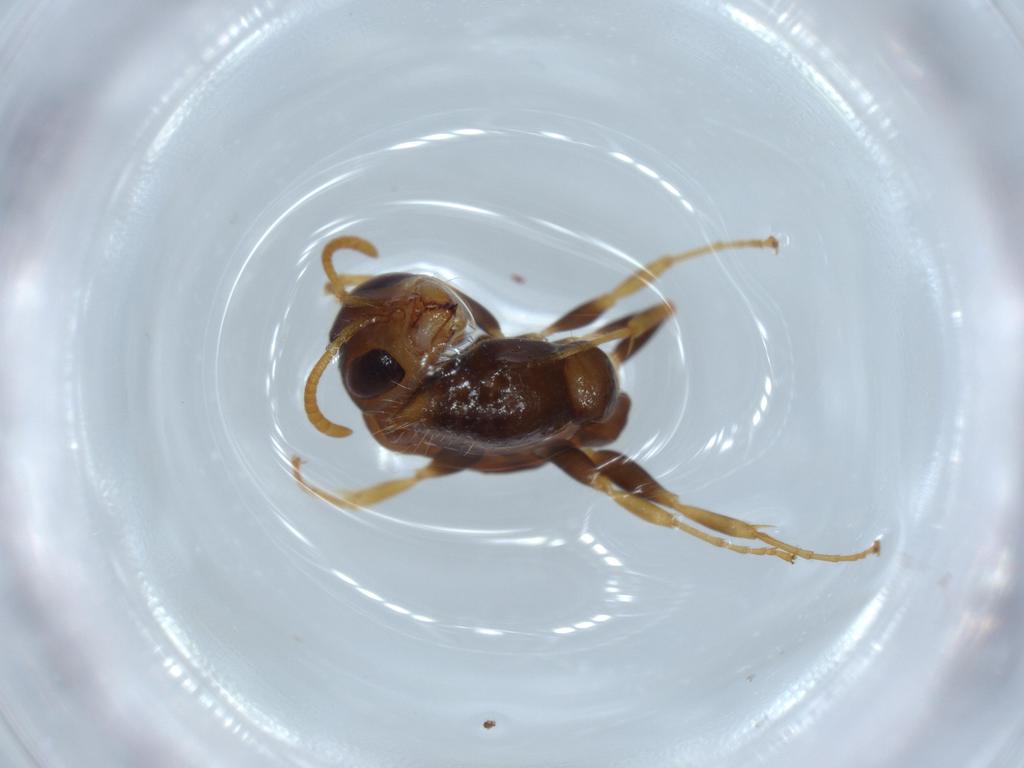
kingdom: Animalia
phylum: Arthropoda
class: Insecta
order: Hymenoptera
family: Formicidae
